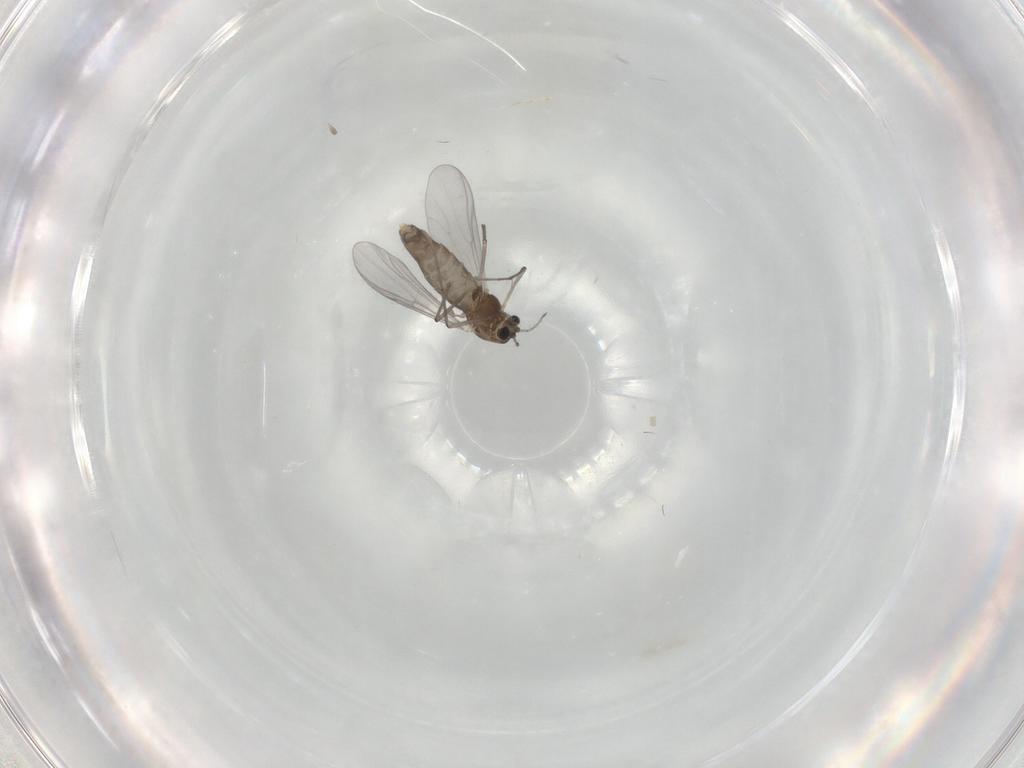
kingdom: Animalia
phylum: Arthropoda
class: Insecta
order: Diptera
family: Chironomidae
